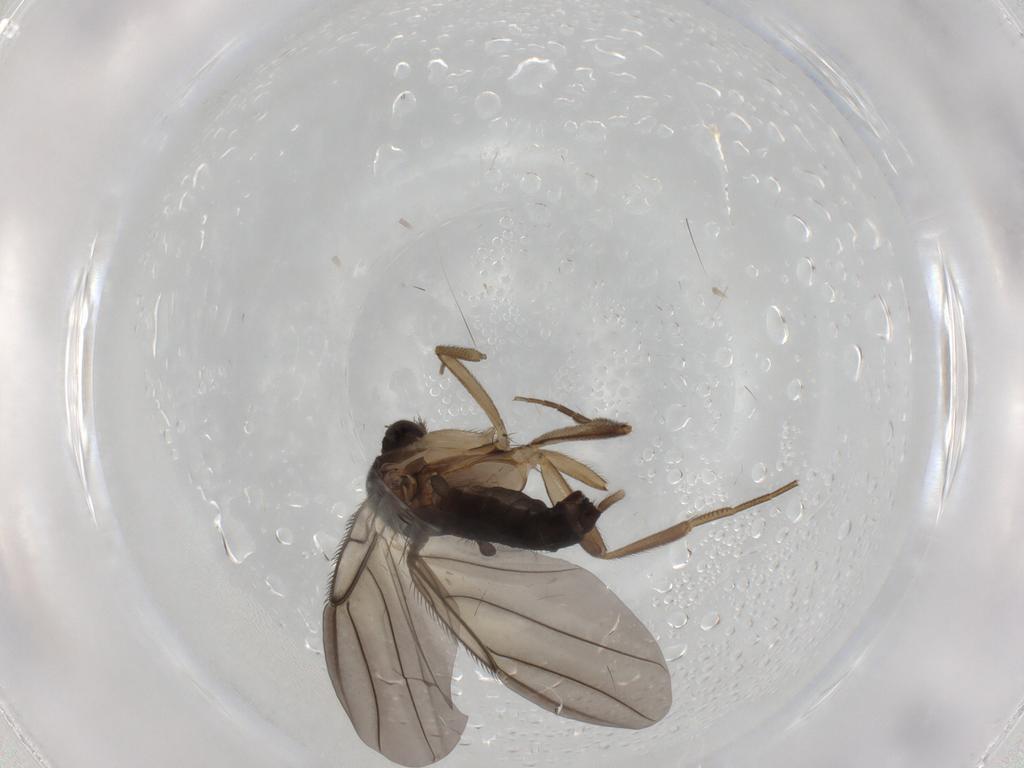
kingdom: Animalia
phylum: Arthropoda
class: Insecta
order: Diptera
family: Phoridae
